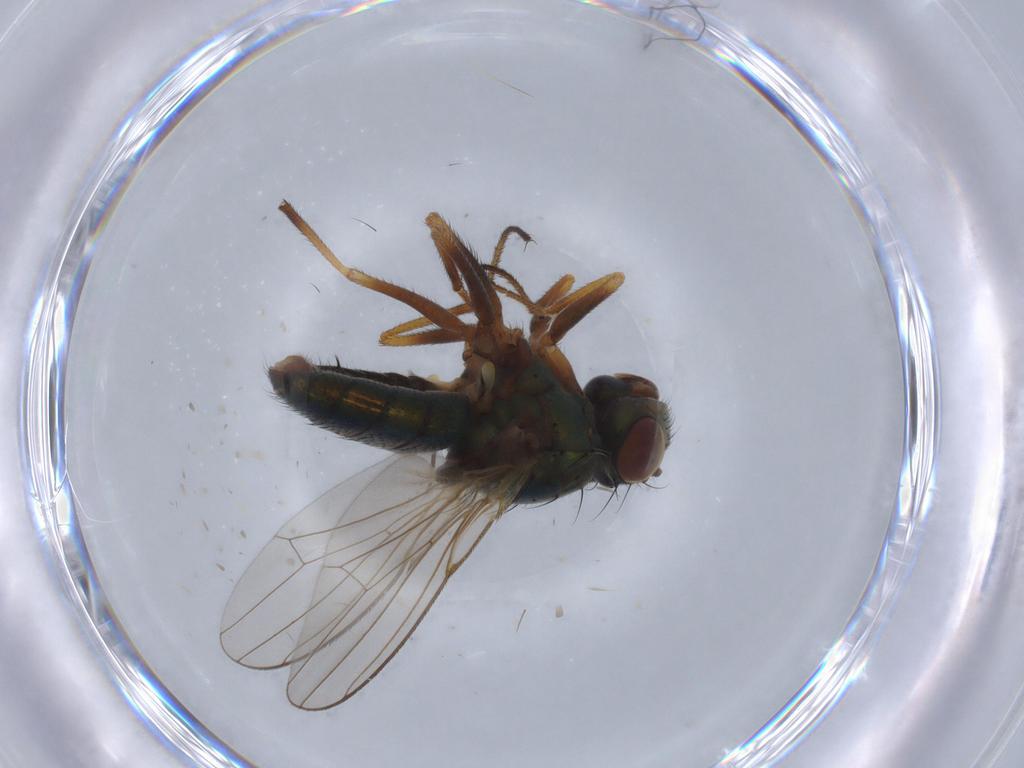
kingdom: Animalia
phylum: Arthropoda
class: Insecta
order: Diptera
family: Ephydridae
